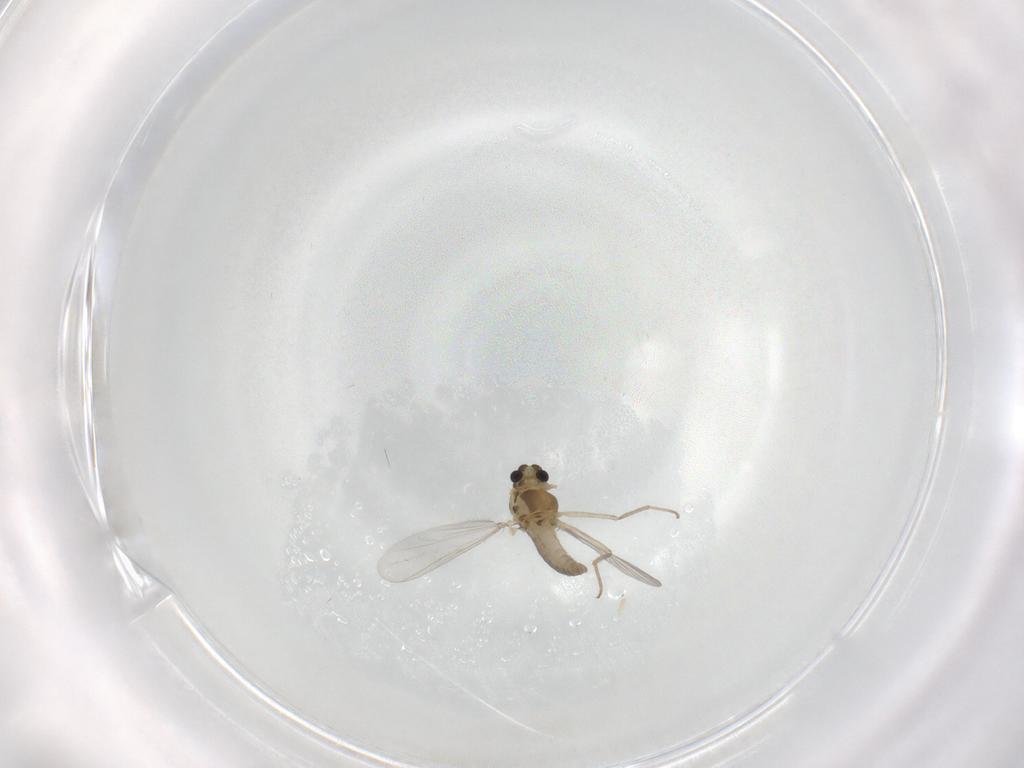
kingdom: Animalia
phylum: Arthropoda
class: Insecta
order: Diptera
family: Chironomidae
